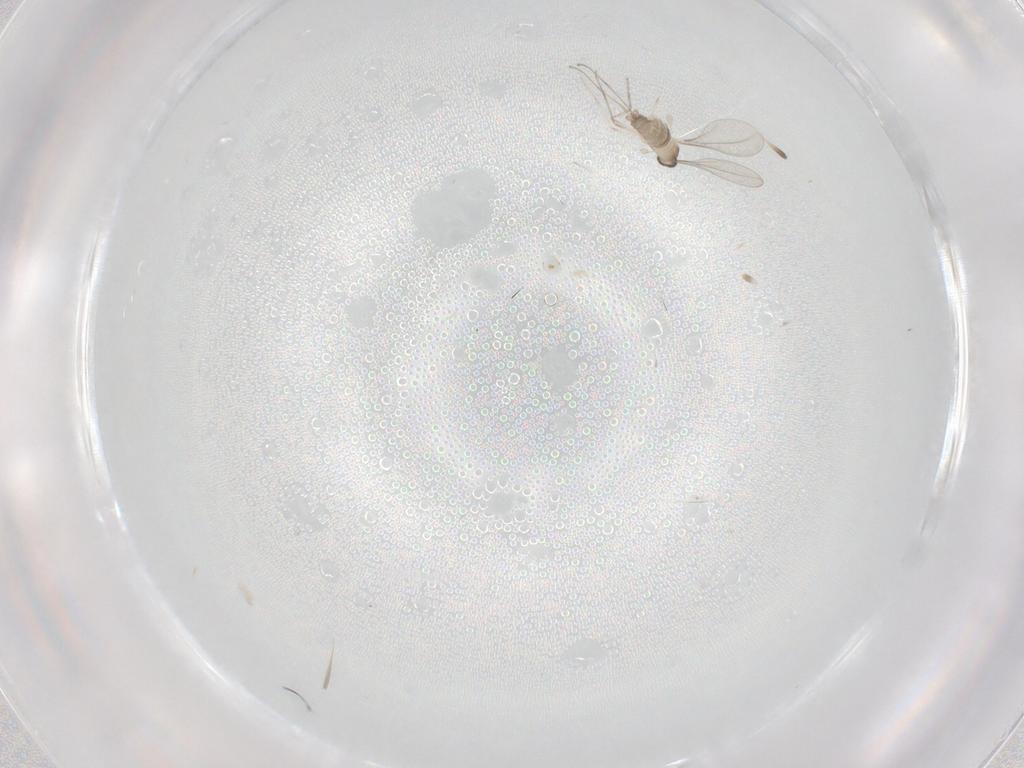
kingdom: Animalia
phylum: Arthropoda
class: Insecta
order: Diptera
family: Cecidomyiidae
